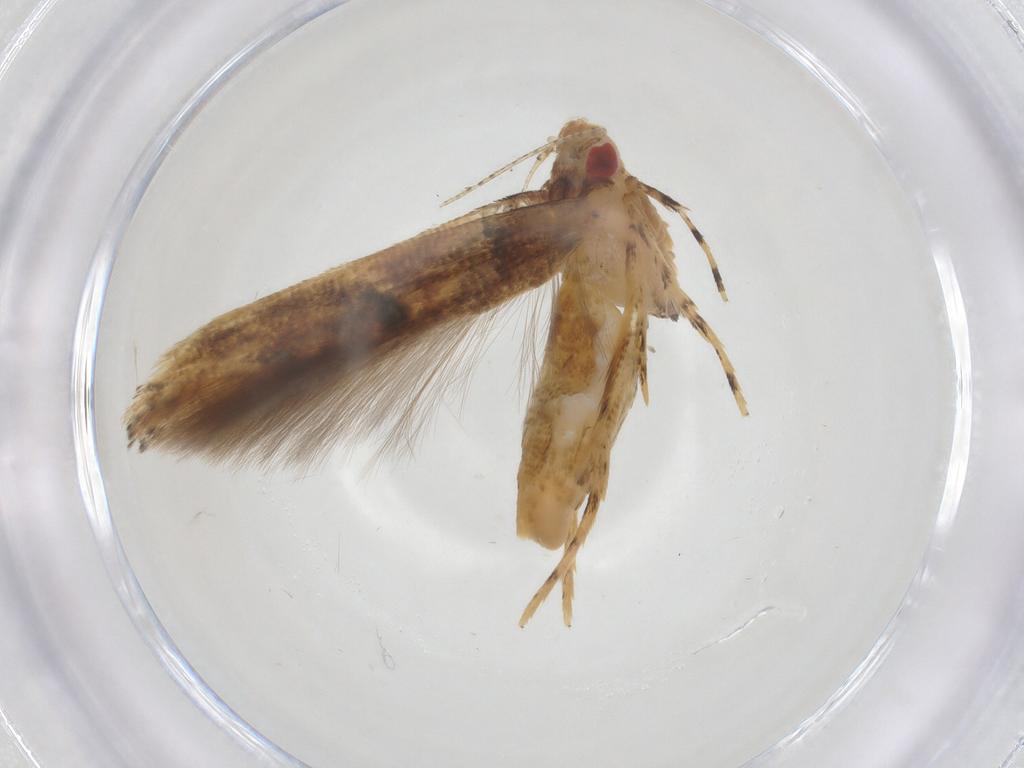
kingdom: Animalia
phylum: Arthropoda
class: Insecta
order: Lepidoptera
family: Cosmopterigidae
